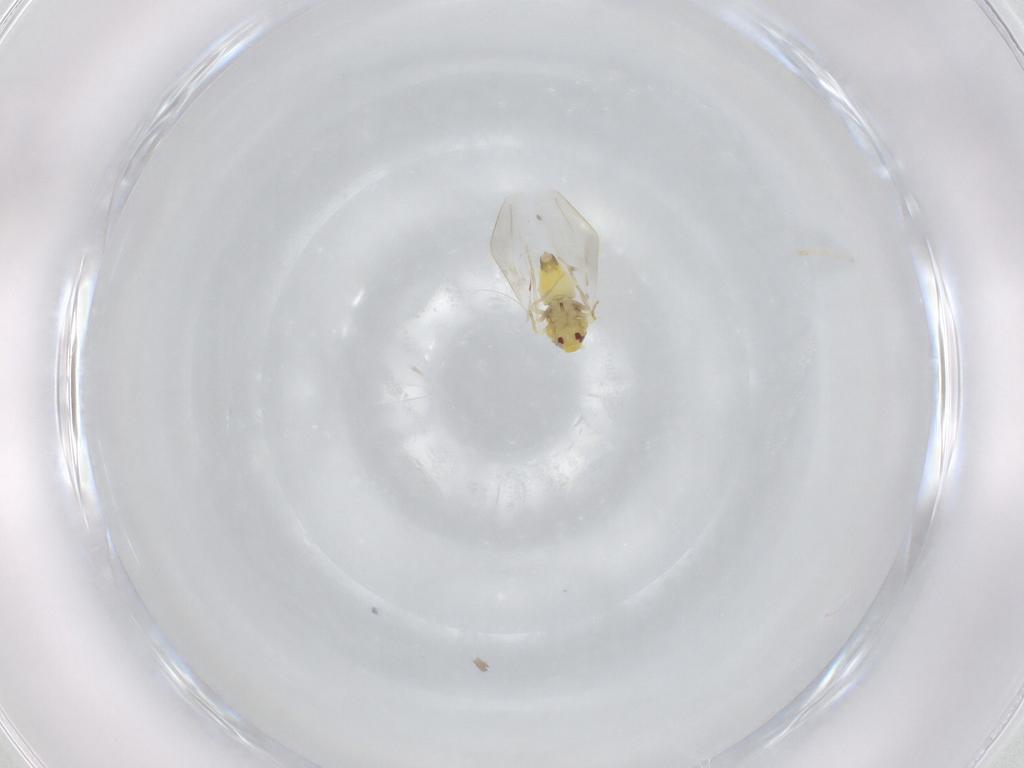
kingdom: Animalia
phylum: Arthropoda
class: Insecta
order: Hemiptera
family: Aleyrodidae
